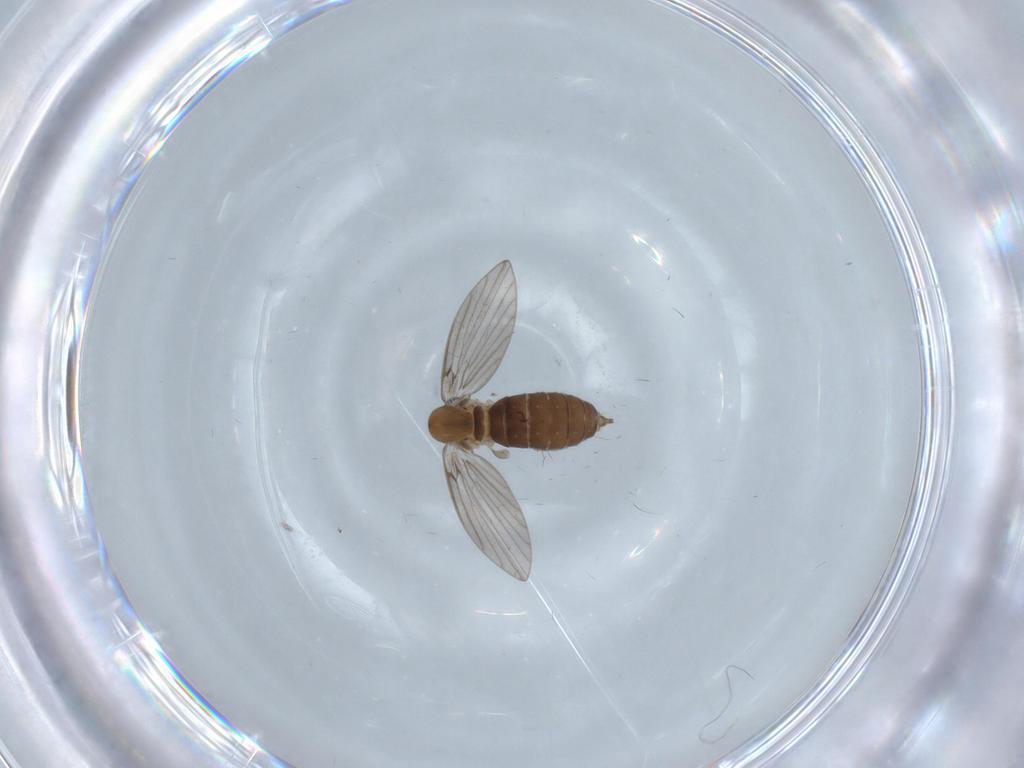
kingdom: Animalia
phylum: Arthropoda
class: Insecta
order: Diptera
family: Psychodidae
